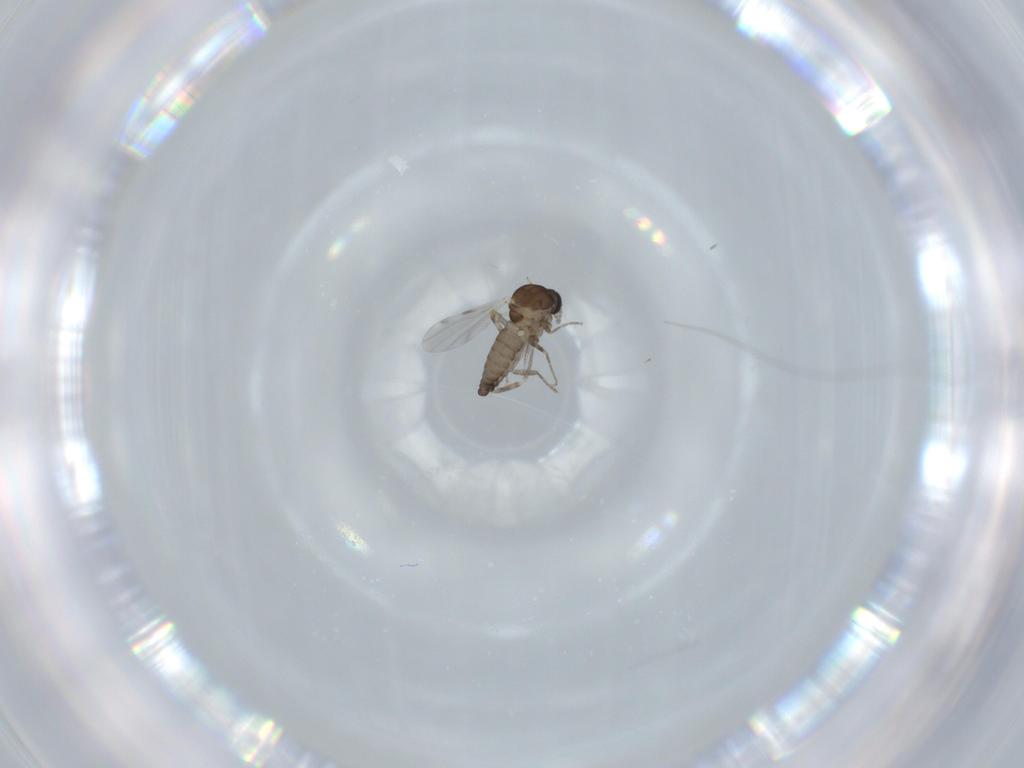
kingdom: Animalia
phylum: Arthropoda
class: Insecta
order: Diptera
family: Ceratopogonidae
